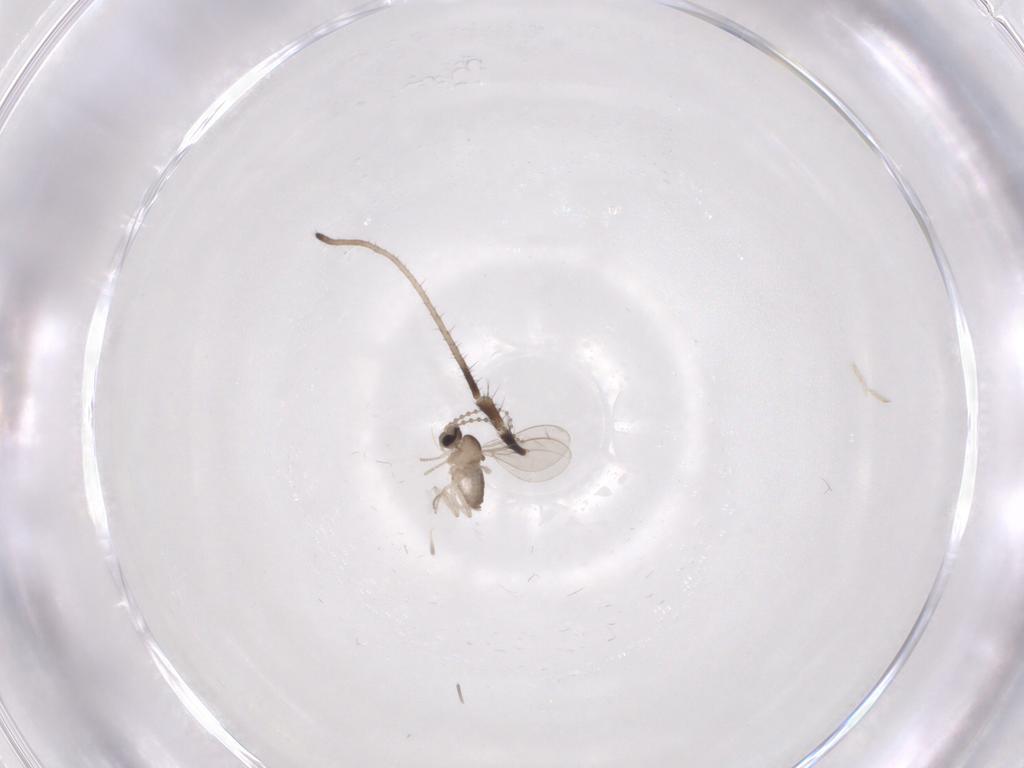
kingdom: Animalia
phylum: Arthropoda
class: Insecta
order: Diptera
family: Cecidomyiidae
